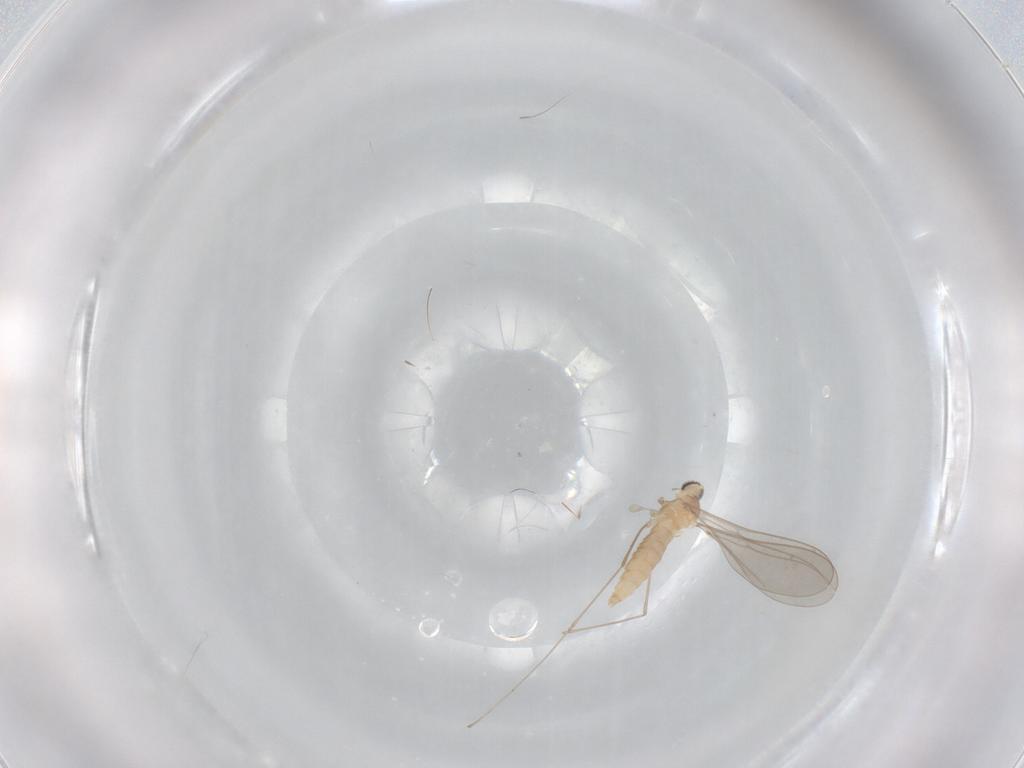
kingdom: Animalia
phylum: Arthropoda
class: Insecta
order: Diptera
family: Cecidomyiidae
